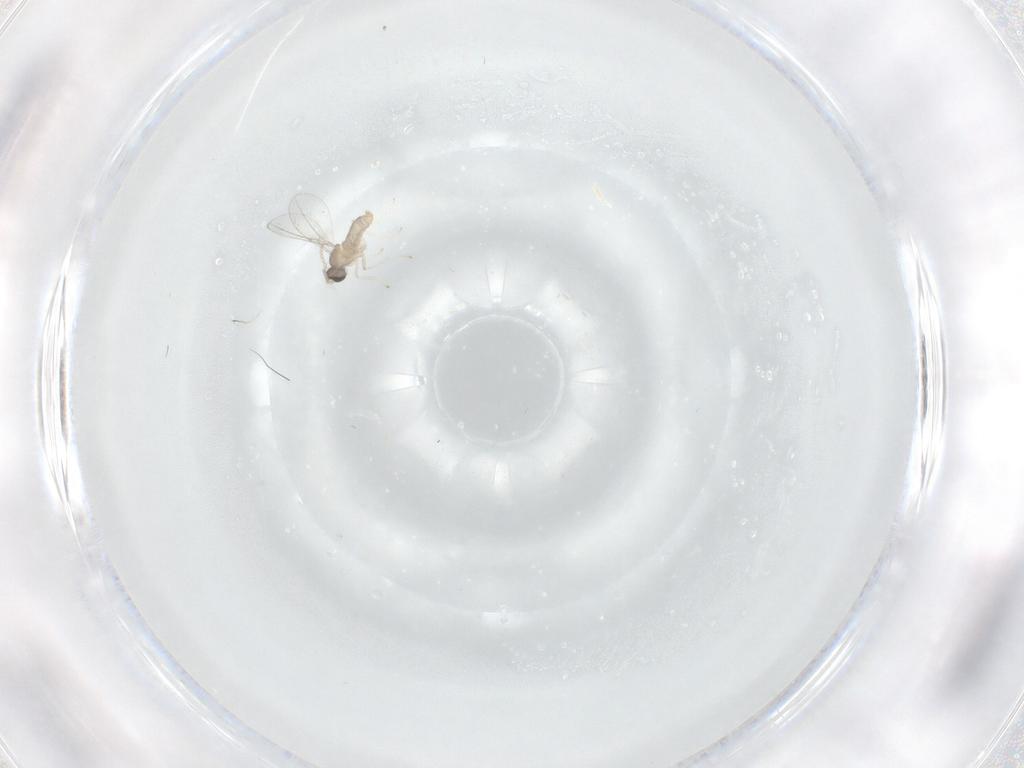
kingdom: Animalia
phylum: Arthropoda
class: Insecta
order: Diptera
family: Cecidomyiidae
